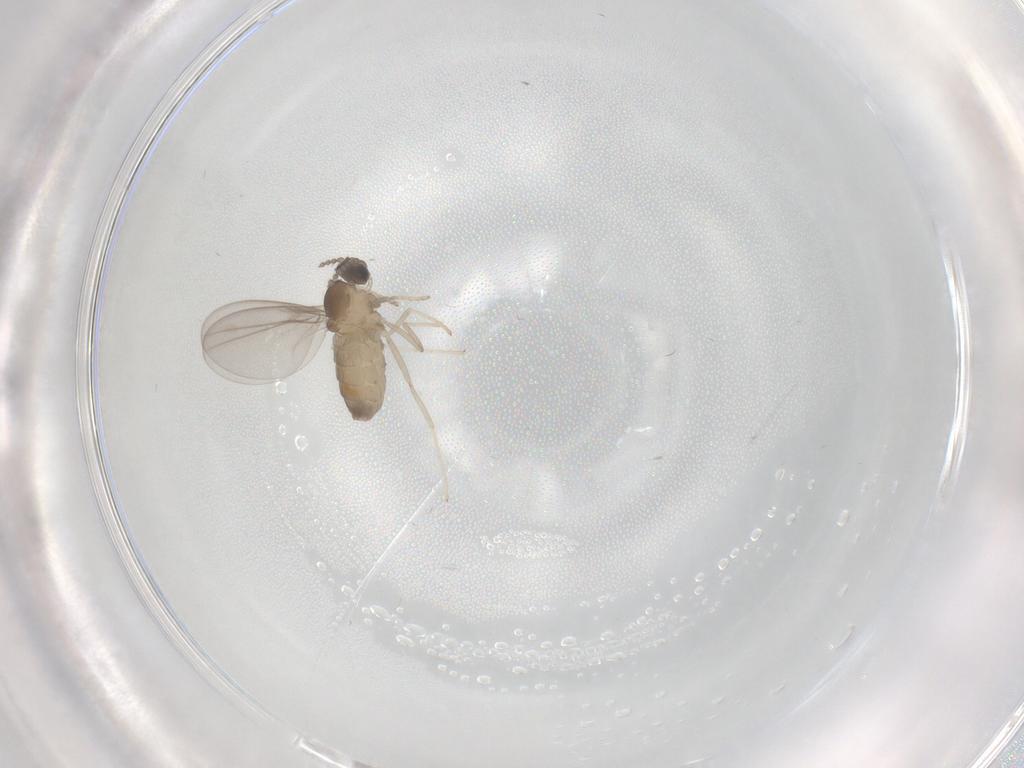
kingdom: Animalia
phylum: Arthropoda
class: Insecta
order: Diptera
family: Cecidomyiidae
